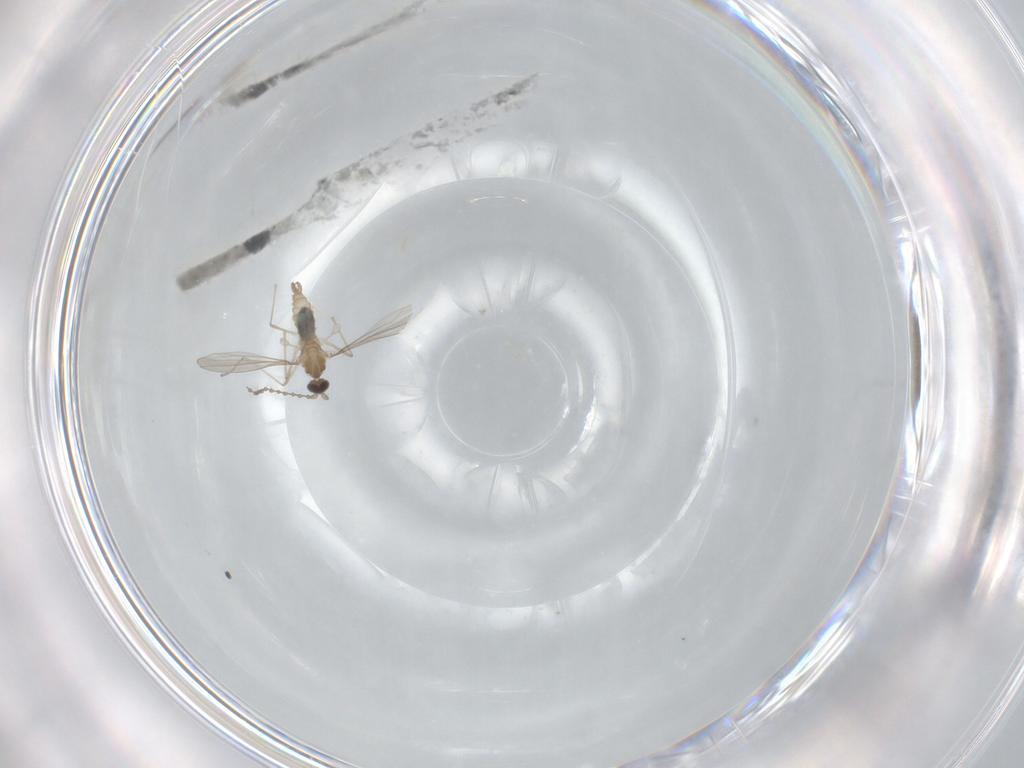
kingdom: Animalia
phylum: Arthropoda
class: Insecta
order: Diptera
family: Cecidomyiidae
